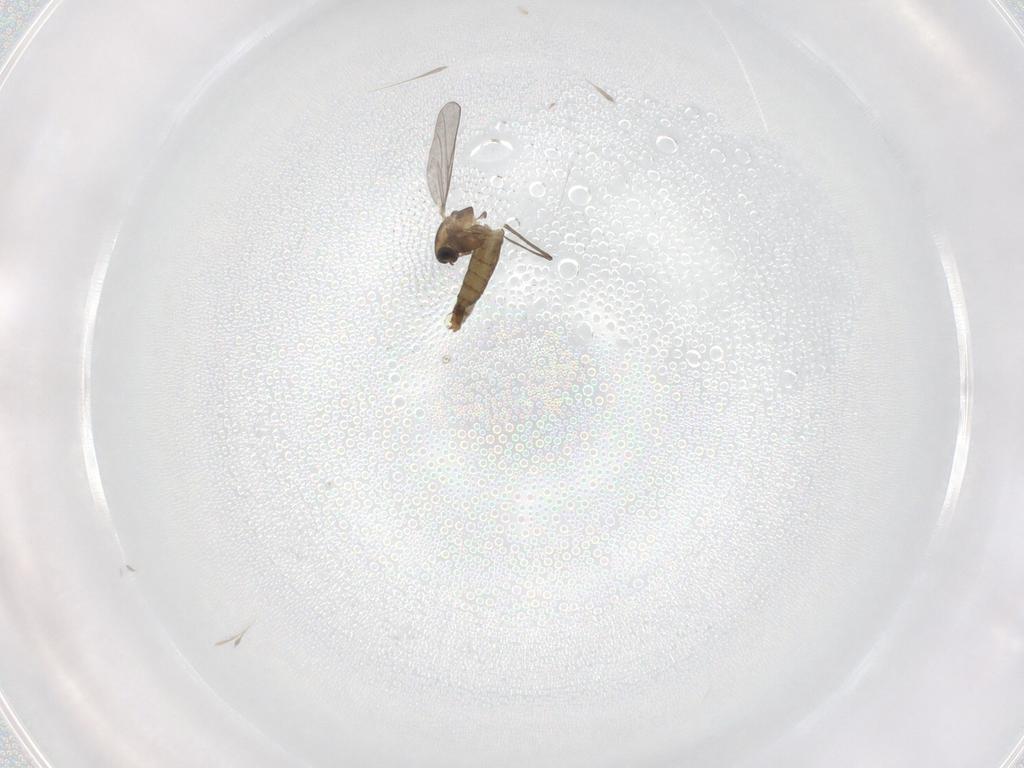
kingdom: Animalia
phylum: Arthropoda
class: Insecta
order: Diptera
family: Chironomidae
